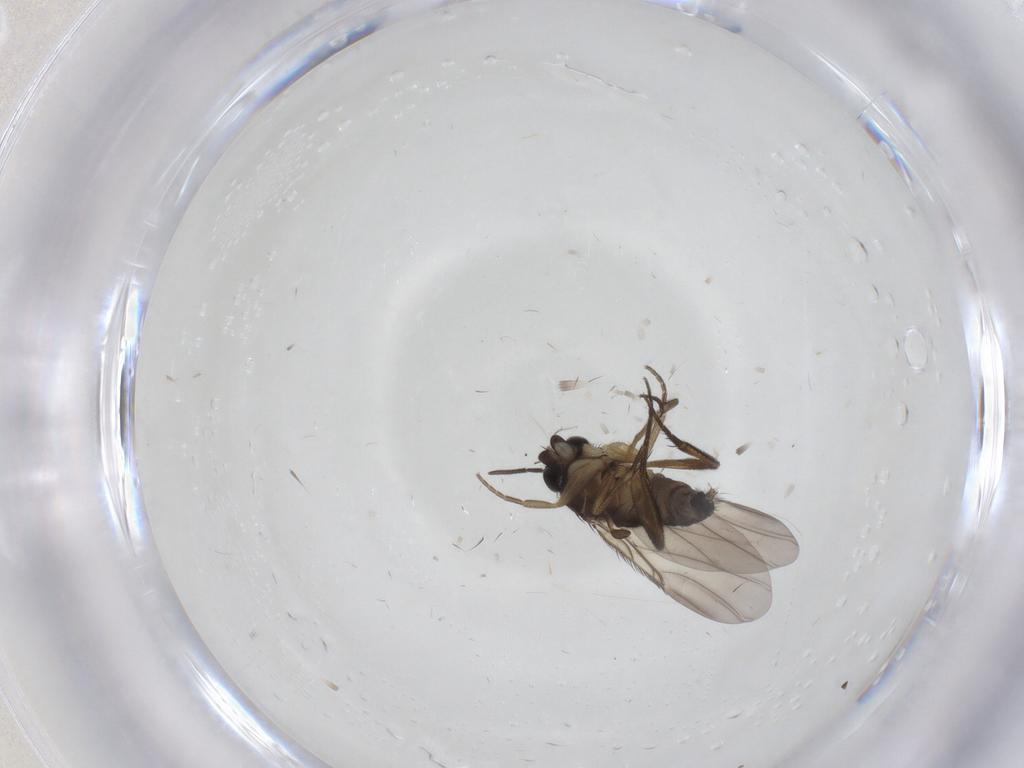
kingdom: Animalia
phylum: Arthropoda
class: Insecta
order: Diptera
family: Phoridae
